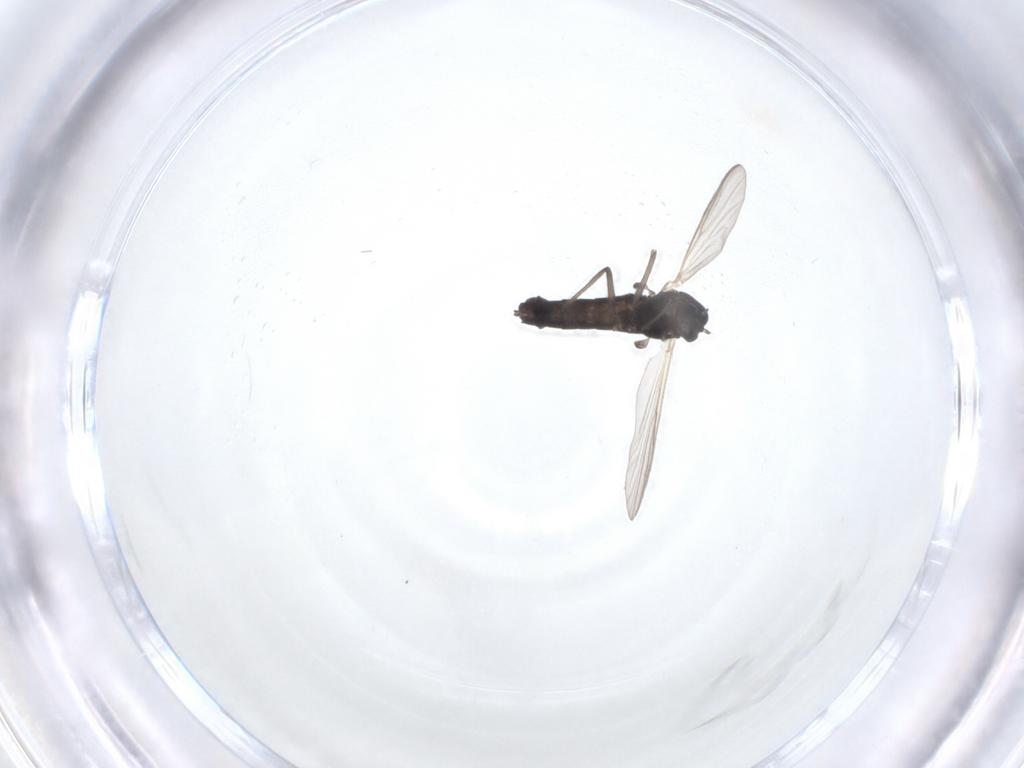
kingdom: Animalia
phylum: Arthropoda
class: Insecta
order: Diptera
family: Chironomidae
